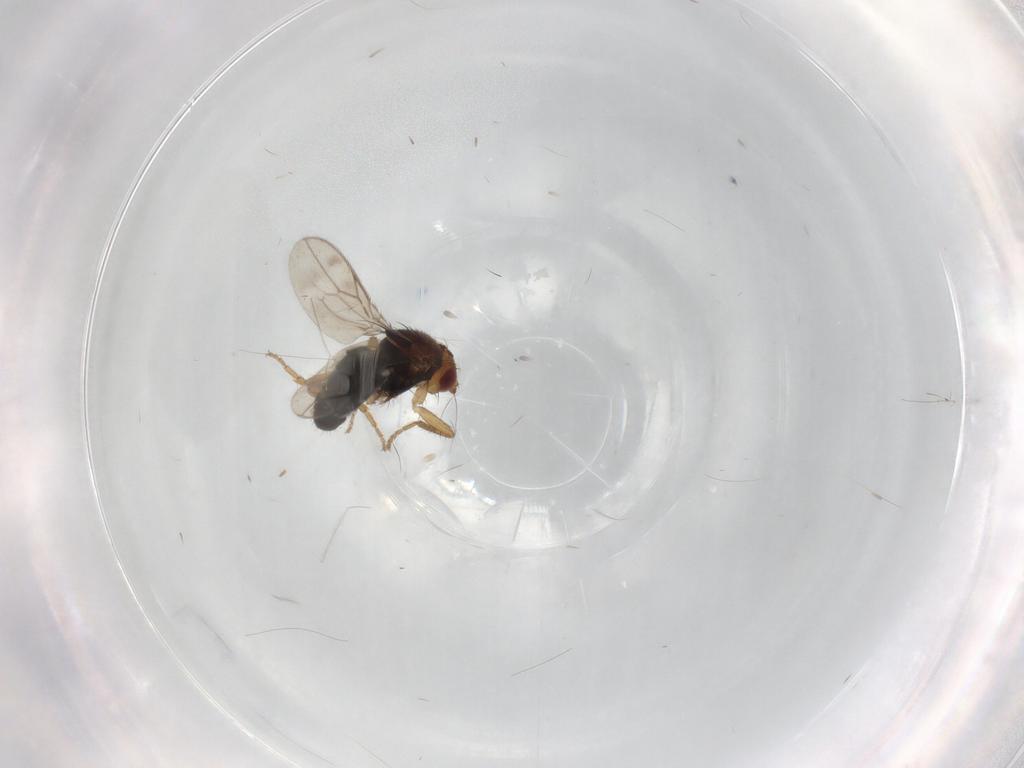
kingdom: Animalia
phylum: Arthropoda
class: Insecta
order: Diptera
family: Sphaeroceridae
